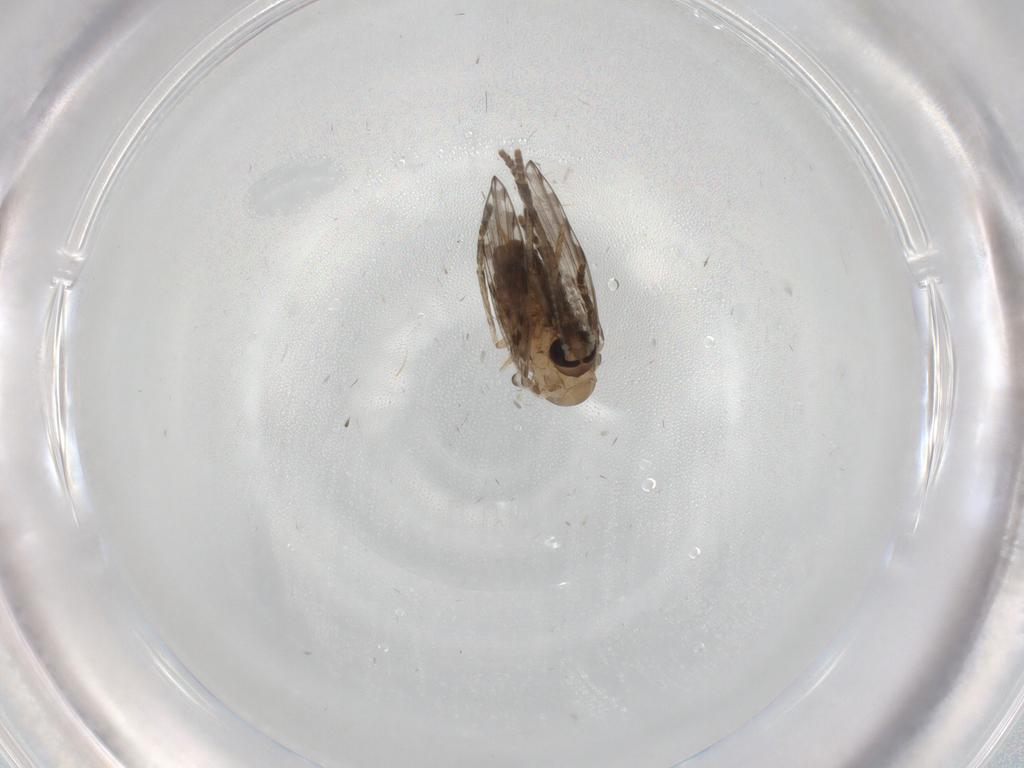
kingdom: Animalia
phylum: Arthropoda
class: Insecta
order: Diptera
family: Psychodidae
